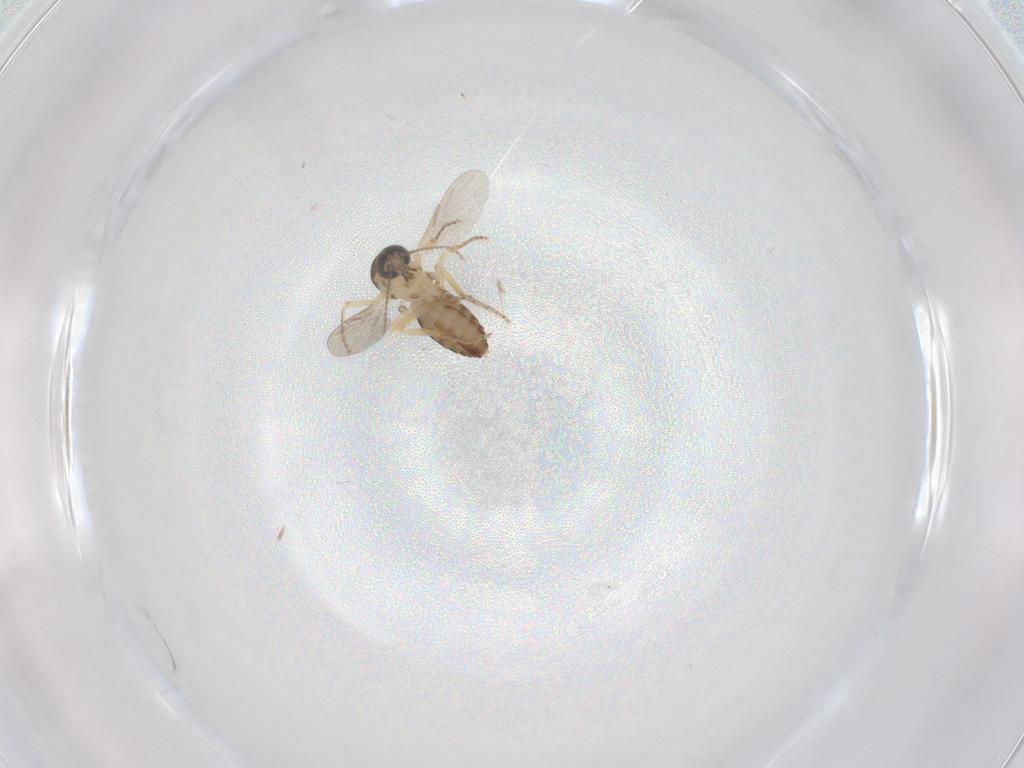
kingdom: Animalia
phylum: Arthropoda
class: Insecta
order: Diptera
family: Ceratopogonidae
